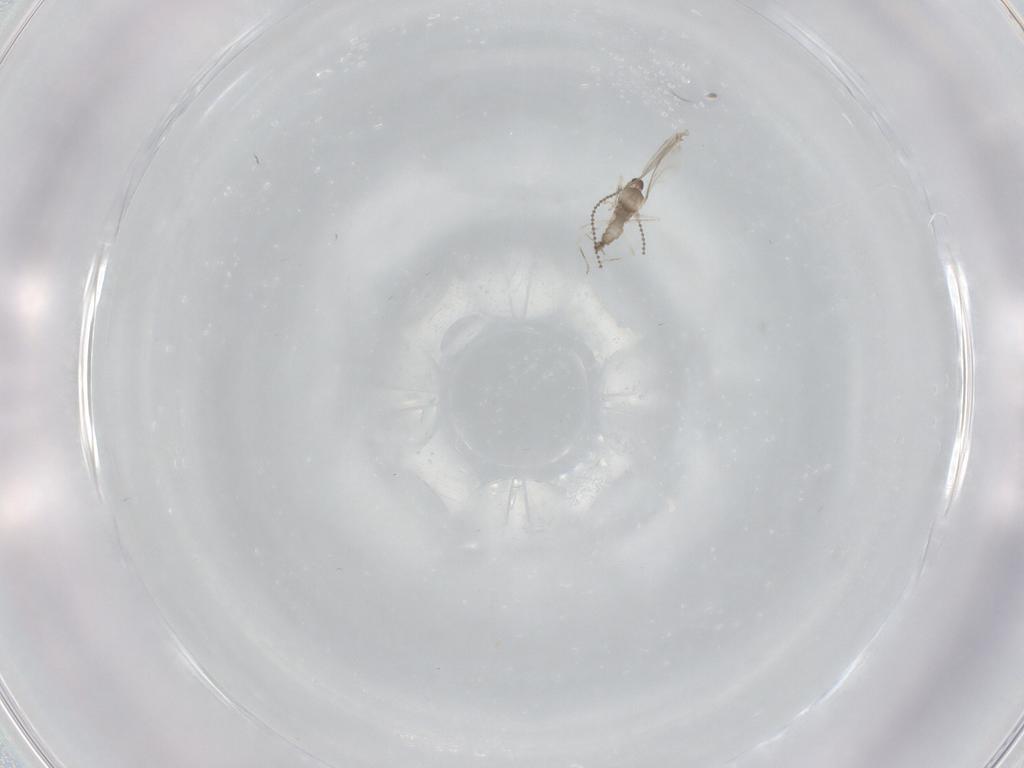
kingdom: Animalia
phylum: Arthropoda
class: Insecta
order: Diptera
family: Cecidomyiidae
